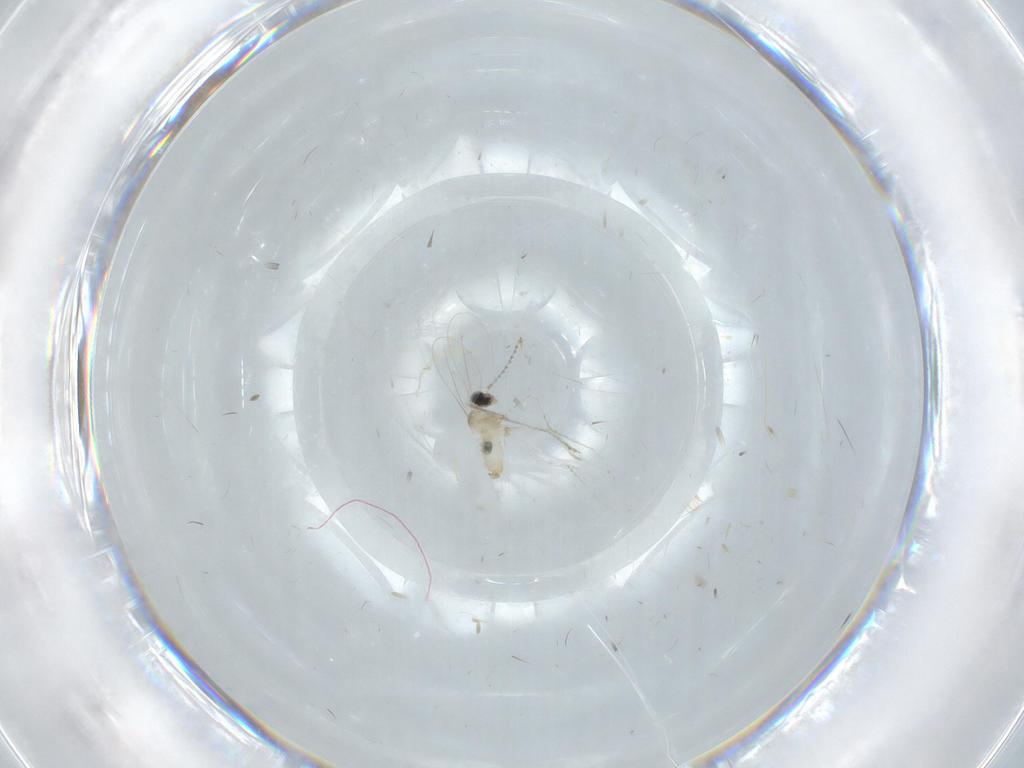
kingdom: Animalia
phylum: Arthropoda
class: Insecta
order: Diptera
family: Cecidomyiidae
